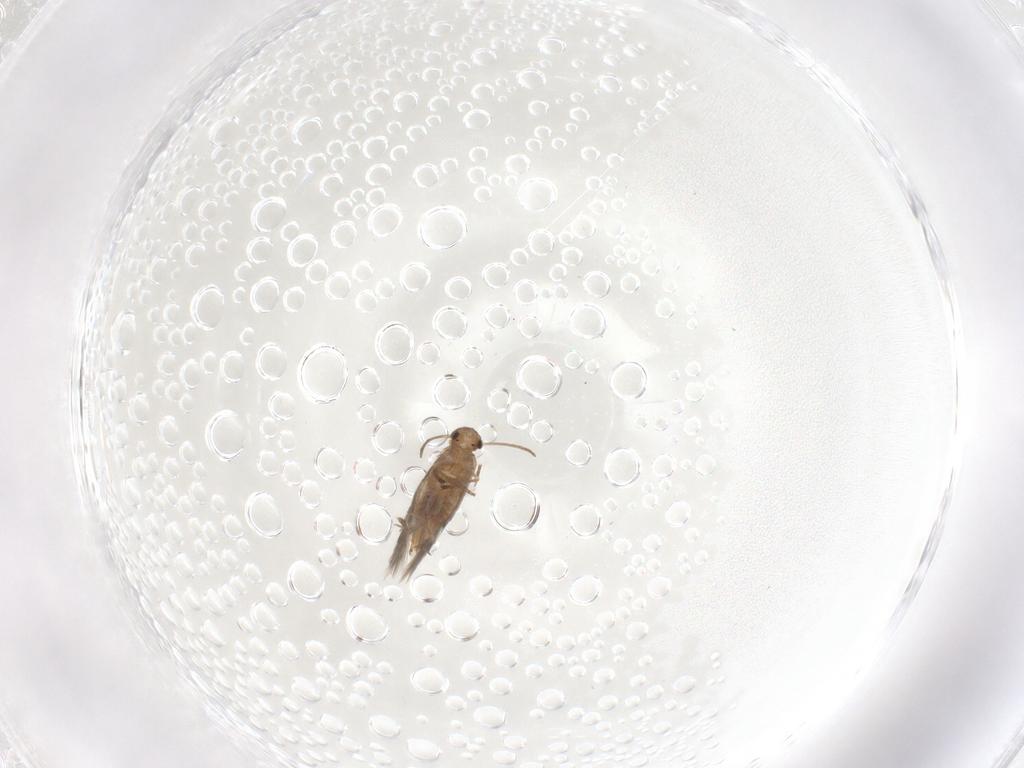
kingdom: Animalia
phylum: Arthropoda
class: Insecta
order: Lepidoptera
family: Heliozelidae
